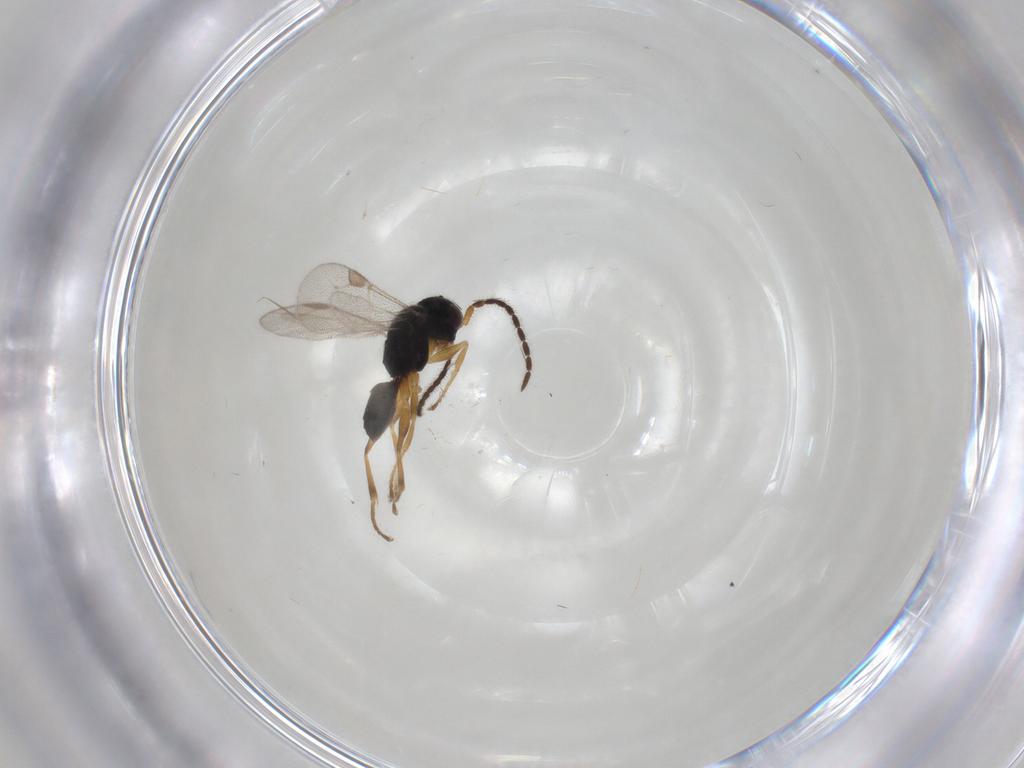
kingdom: Animalia
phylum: Arthropoda
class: Insecta
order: Hymenoptera
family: Dryinidae
